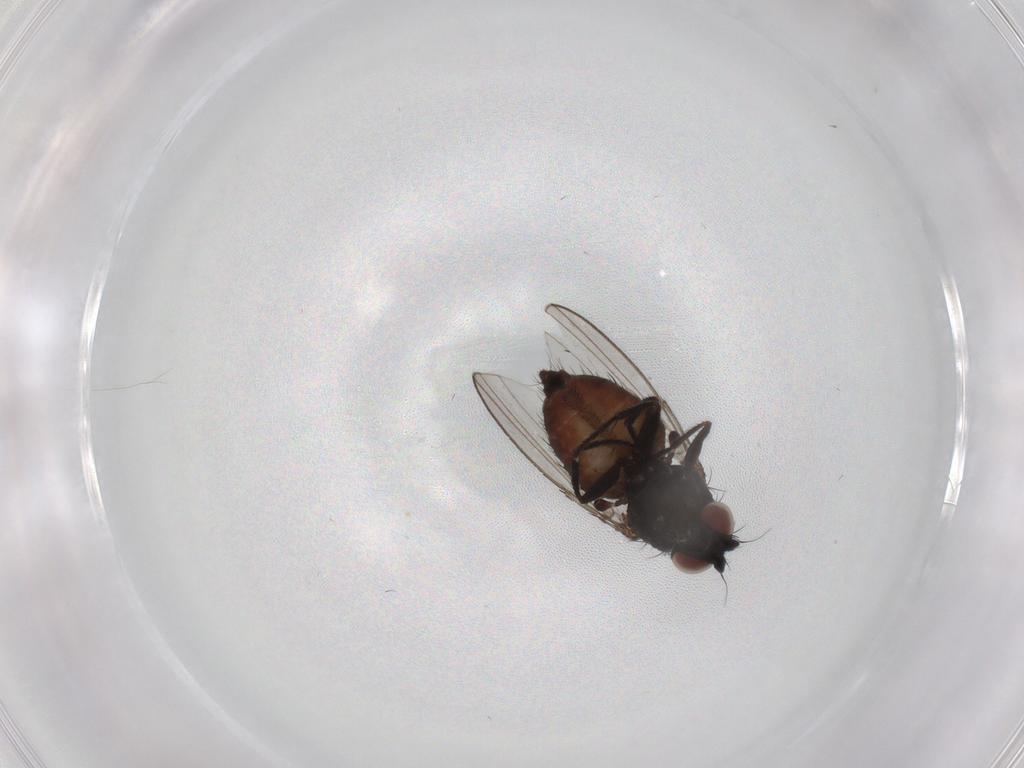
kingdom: Animalia
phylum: Arthropoda
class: Insecta
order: Diptera
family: Milichiidae
